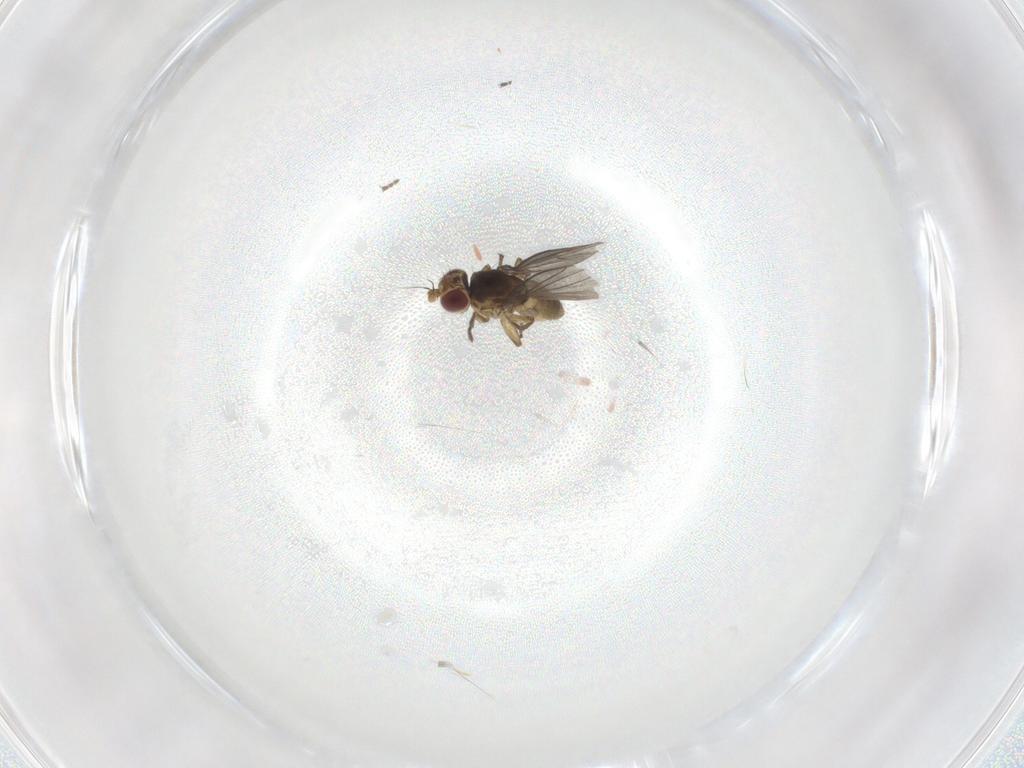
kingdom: Animalia
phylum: Arthropoda
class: Insecta
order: Diptera
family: Agromyzidae
